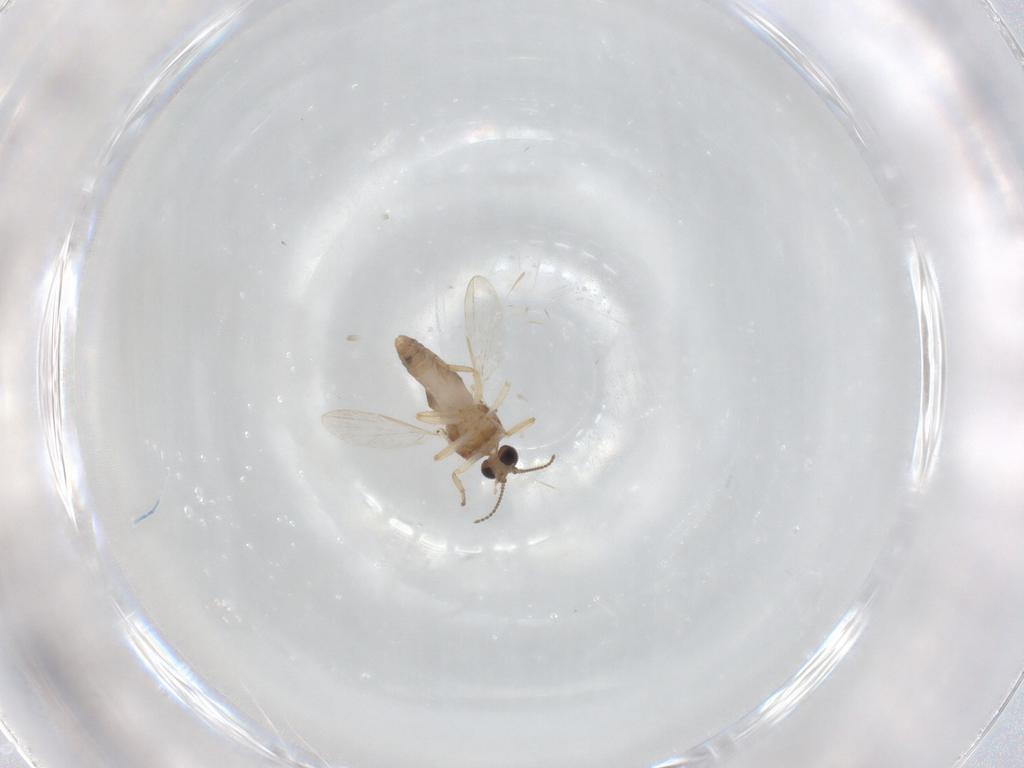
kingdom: Animalia
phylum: Arthropoda
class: Insecta
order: Diptera
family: Ceratopogonidae
